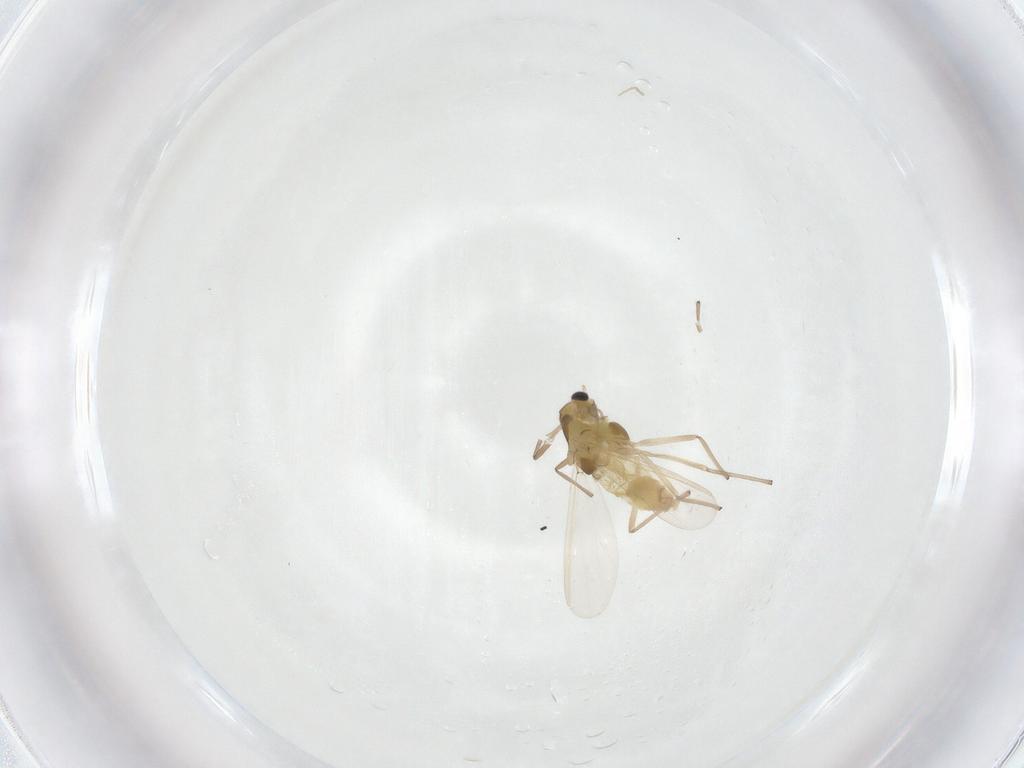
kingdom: Animalia
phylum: Arthropoda
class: Insecta
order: Diptera
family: Chironomidae
